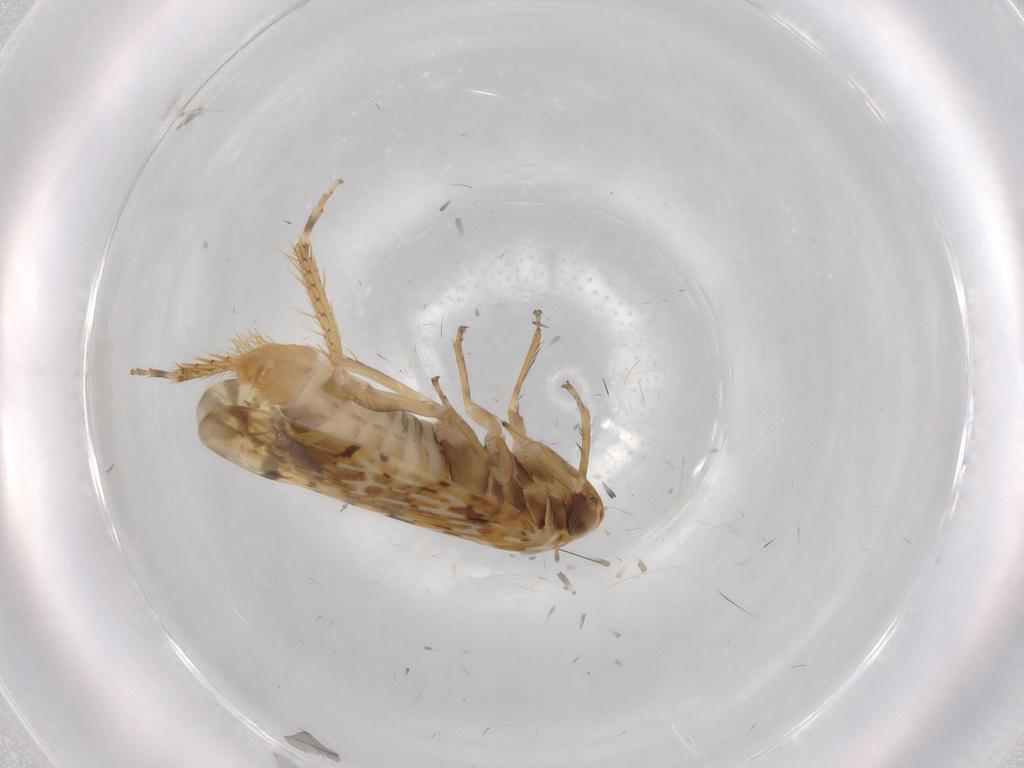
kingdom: Animalia
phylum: Arthropoda
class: Insecta
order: Hemiptera
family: Cicadellidae
